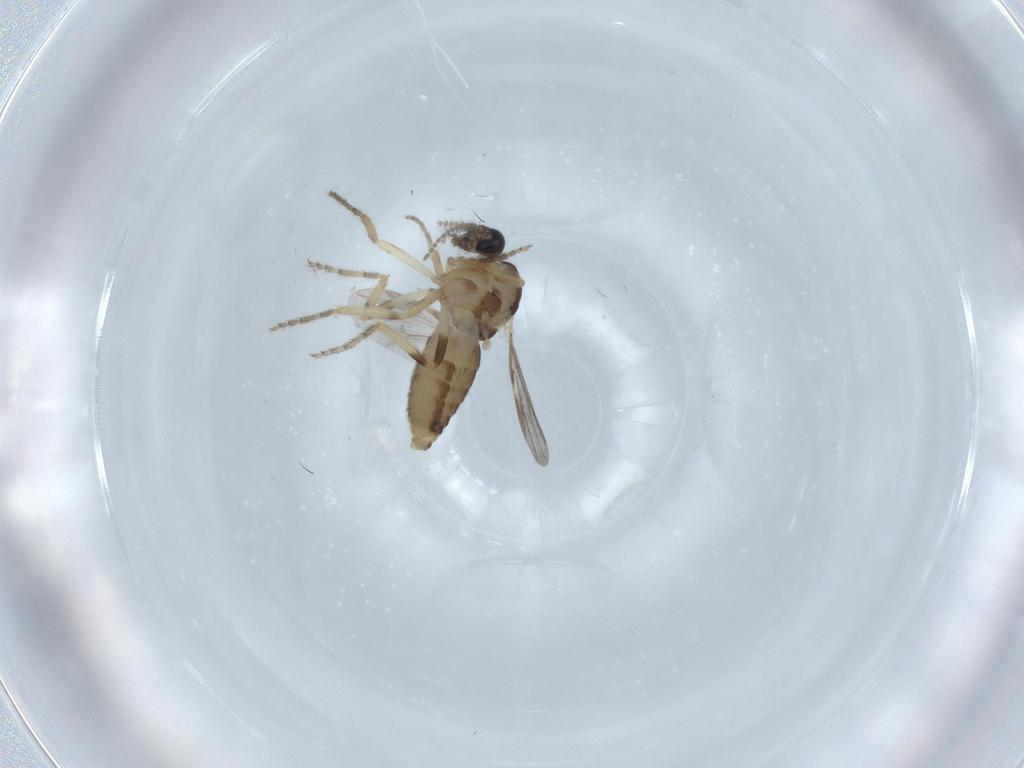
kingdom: Animalia
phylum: Arthropoda
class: Insecta
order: Diptera
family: Ceratopogonidae
